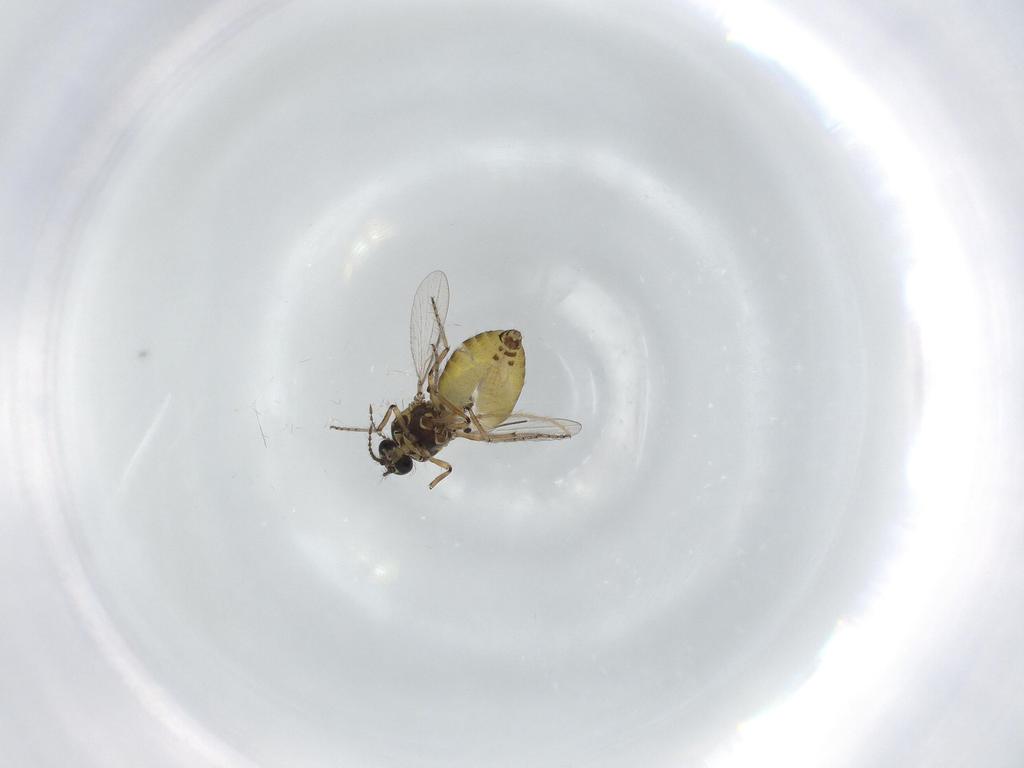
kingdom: Animalia
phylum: Arthropoda
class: Insecta
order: Diptera
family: Ceratopogonidae
